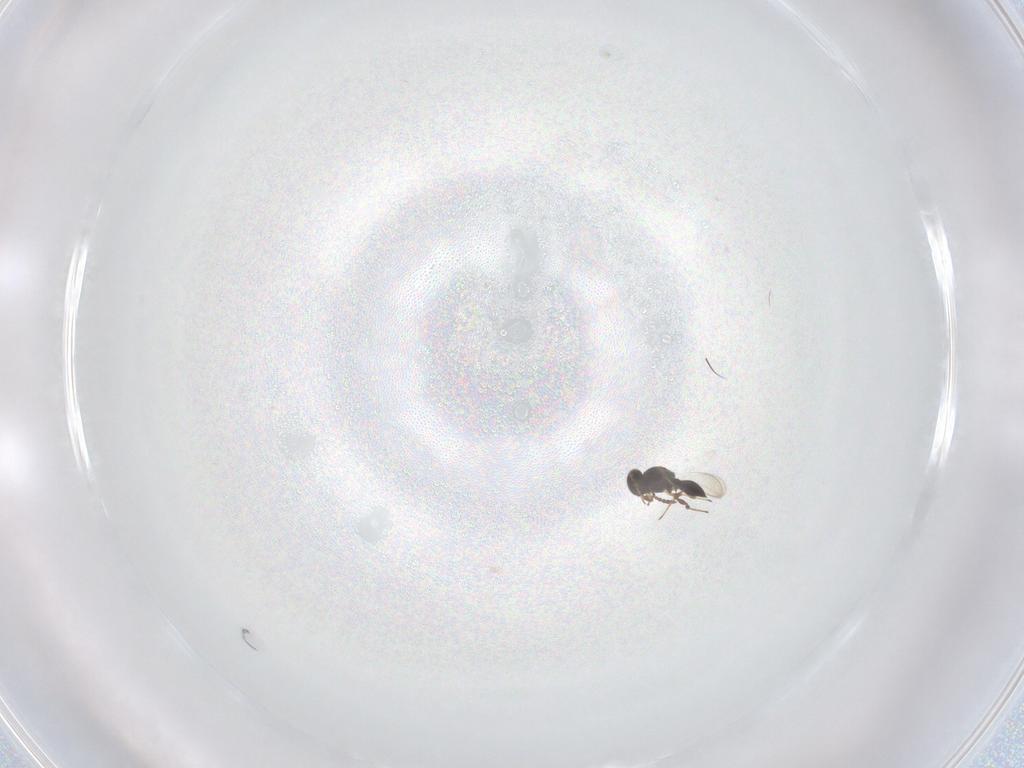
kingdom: Animalia
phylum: Arthropoda
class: Insecta
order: Hymenoptera
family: Platygastridae
